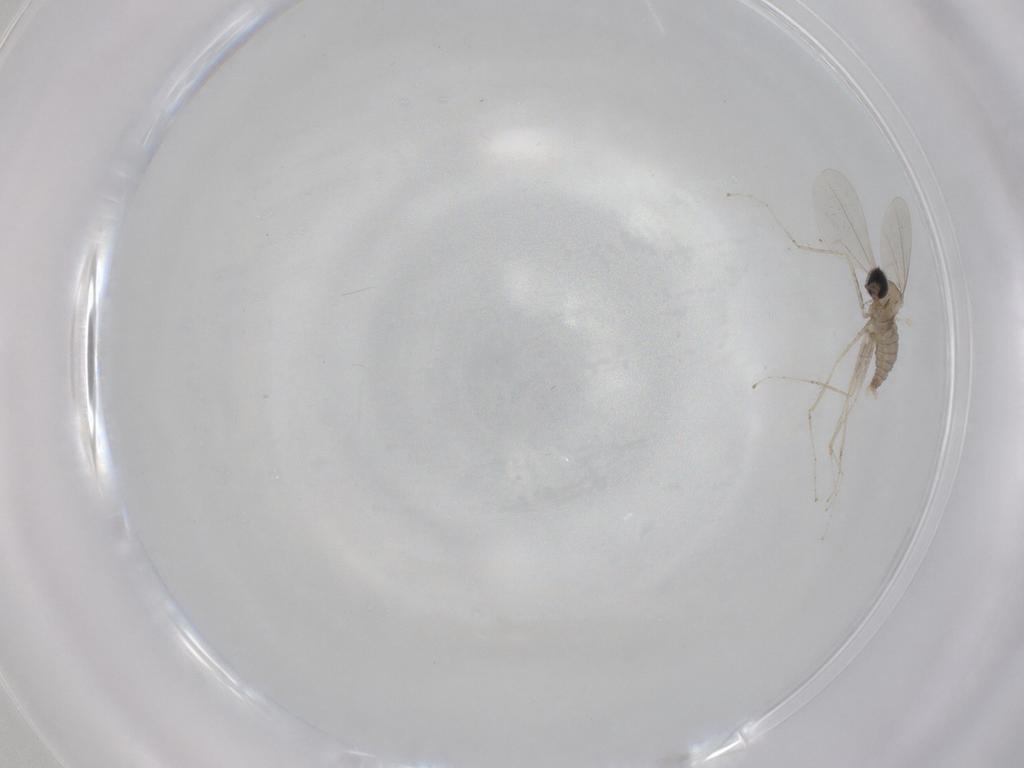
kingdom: Animalia
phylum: Arthropoda
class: Insecta
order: Diptera
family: Cecidomyiidae
